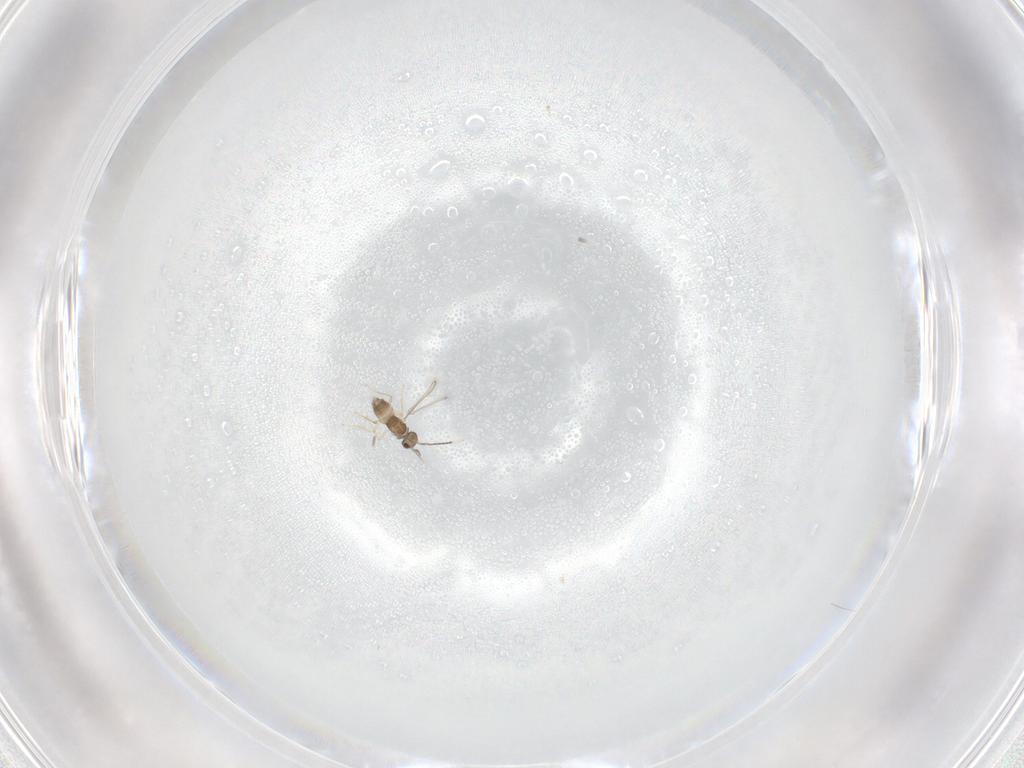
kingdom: Animalia
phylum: Arthropoda
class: Insecta
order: Hymenoptera
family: Mymaridae
